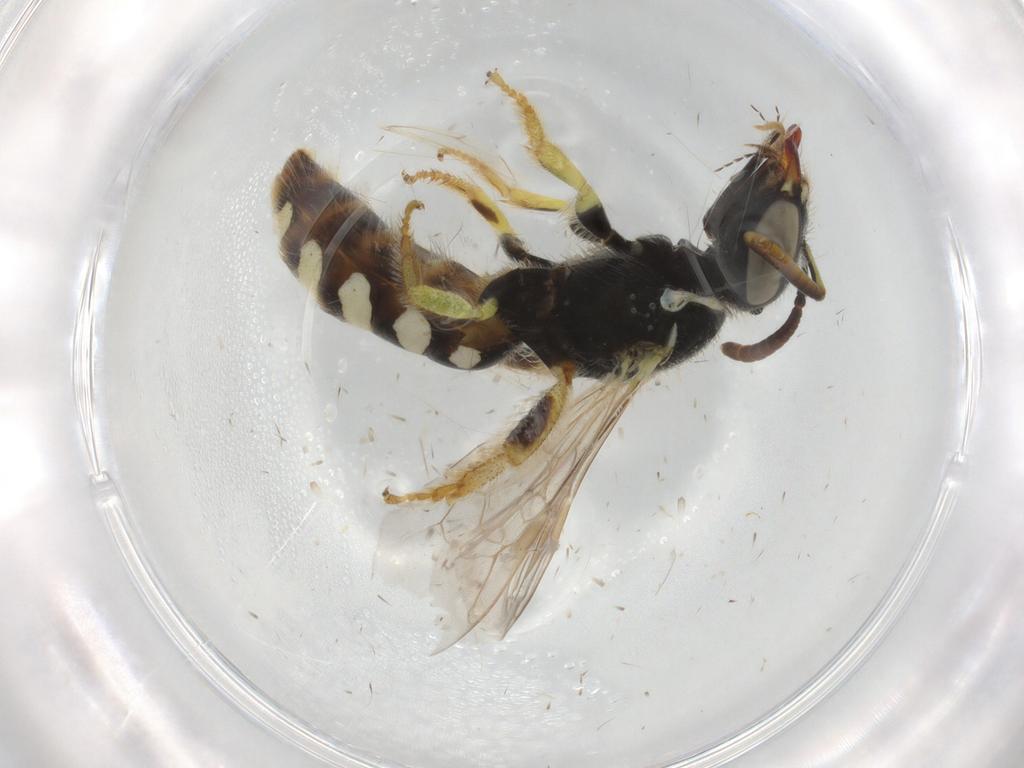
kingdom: Animalia
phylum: Arthropoda
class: Insecta
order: Hymenoptera
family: Halictidae
